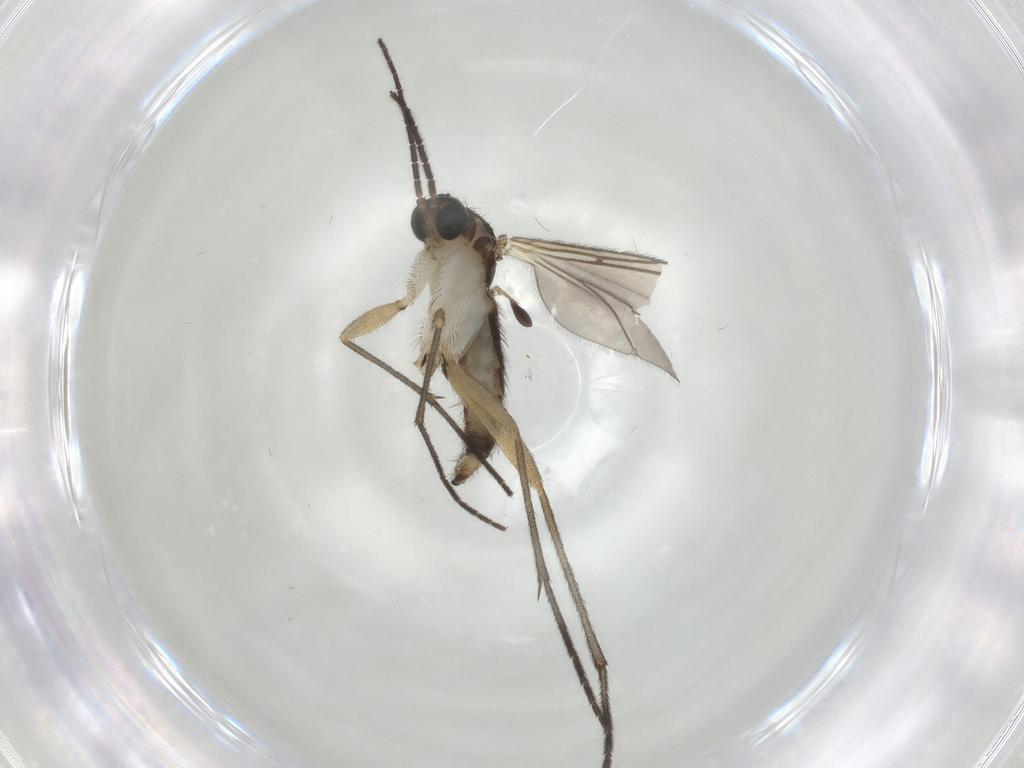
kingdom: Animalia
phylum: Arthropoda
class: Insecta
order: Diptera
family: Sciaridae
